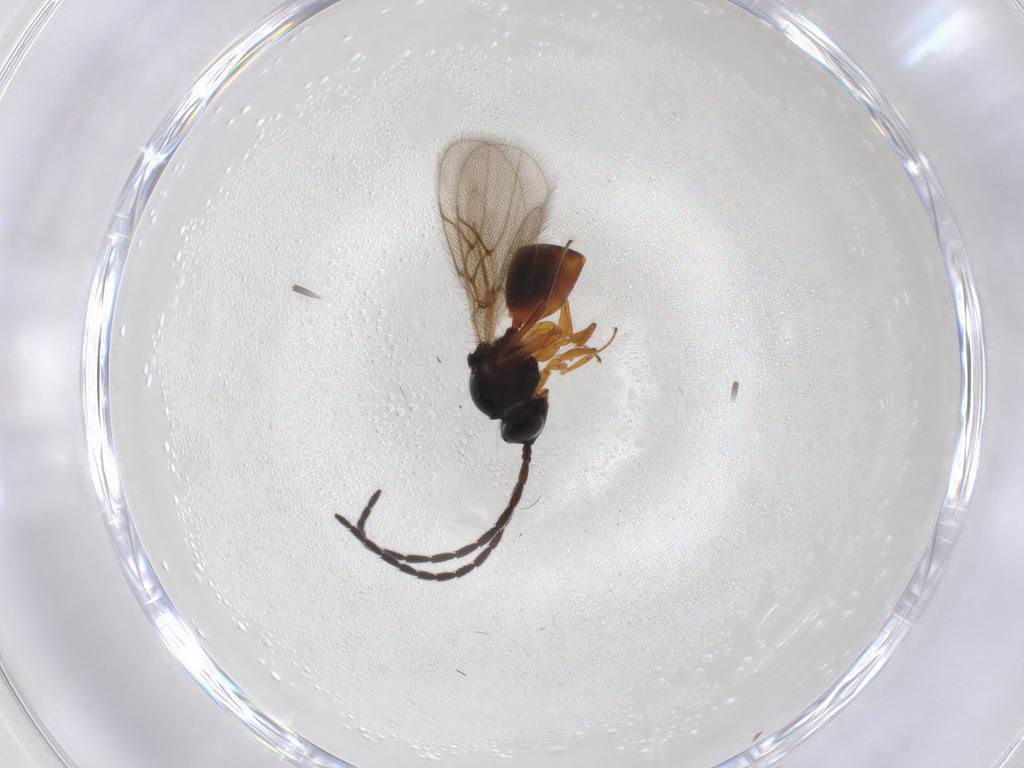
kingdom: Animalia
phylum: Arthropoda
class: Insecta
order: Hymenoptera
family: Figitidae
